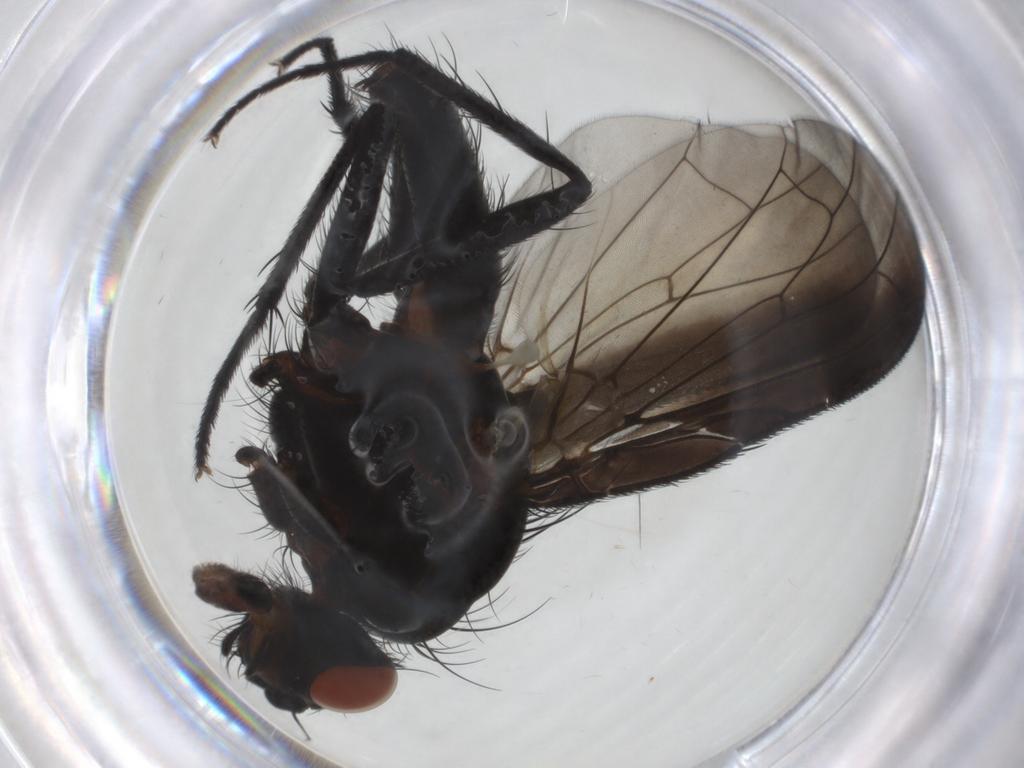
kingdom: Animalia
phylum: Arthropoda
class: Insecta
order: Diptera
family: Anthomyiidae
